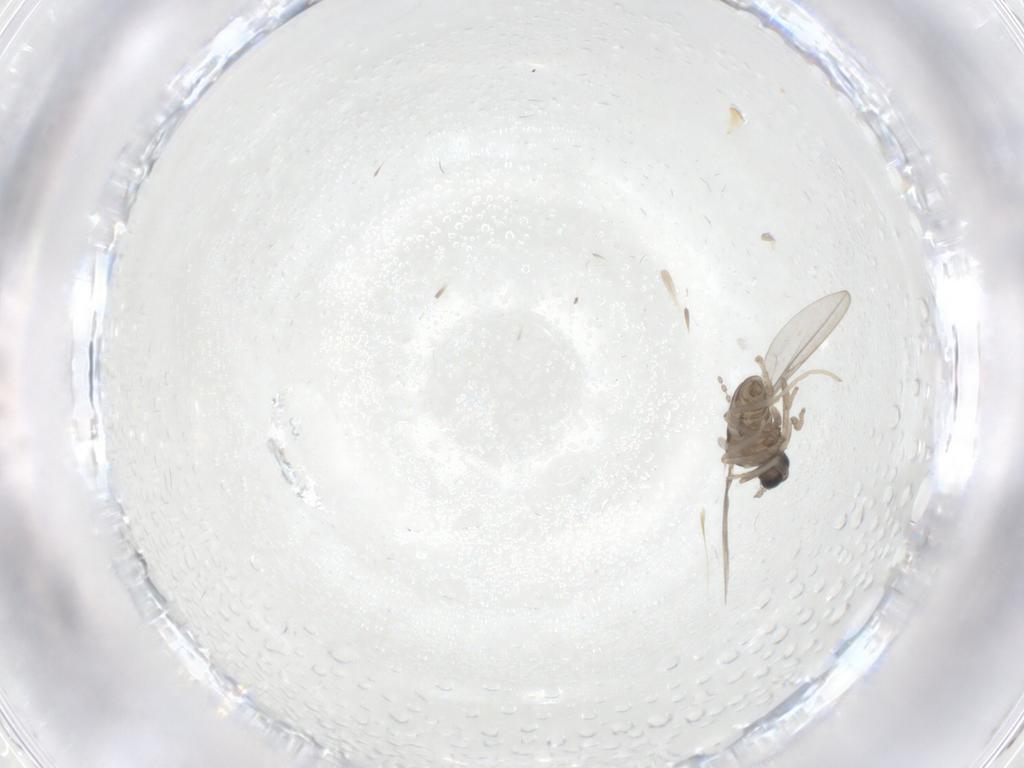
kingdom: Animalia
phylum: Arthropoda
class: Insecta
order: Diptera
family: Cecidomyiidae
